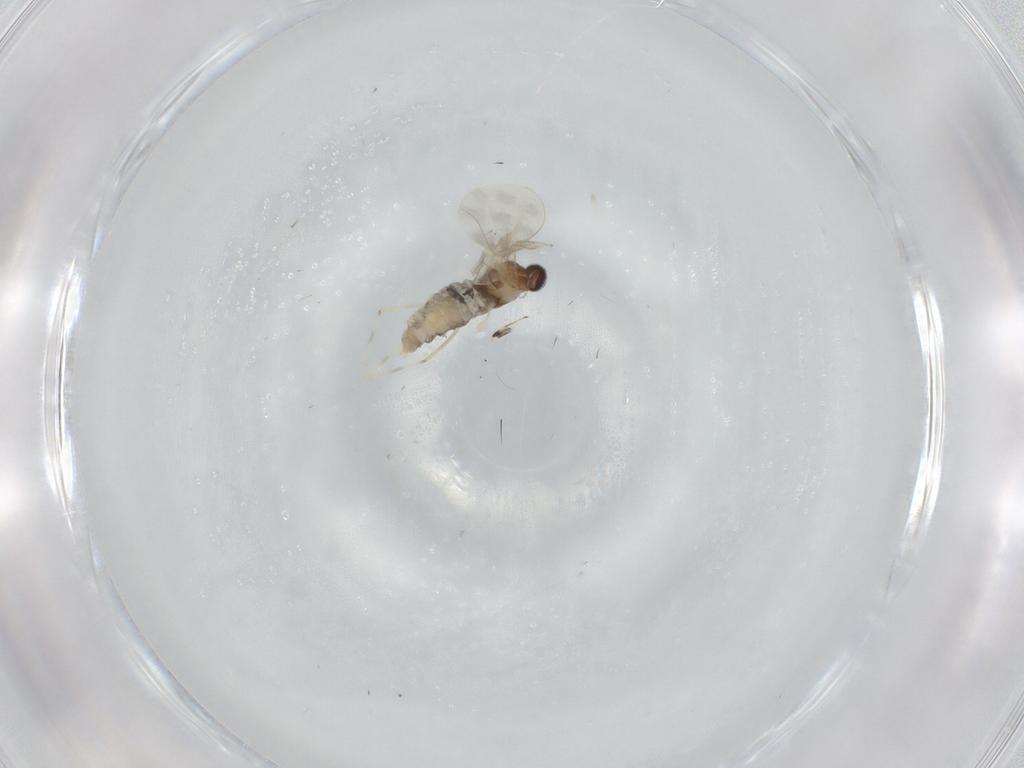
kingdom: Animalia
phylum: Arthropoda
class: Insecta
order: Diptera
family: Cecidomyiidae
